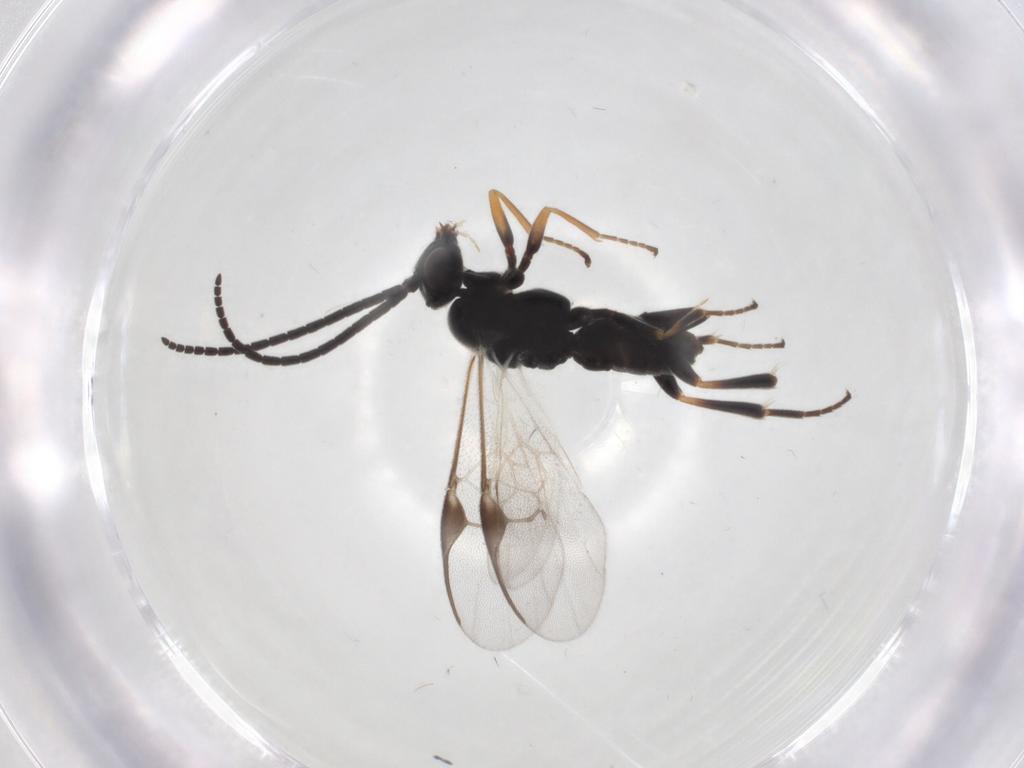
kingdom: Animalia
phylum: Arthropoda
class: Insecta
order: Hymenoptera
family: Braconidae
